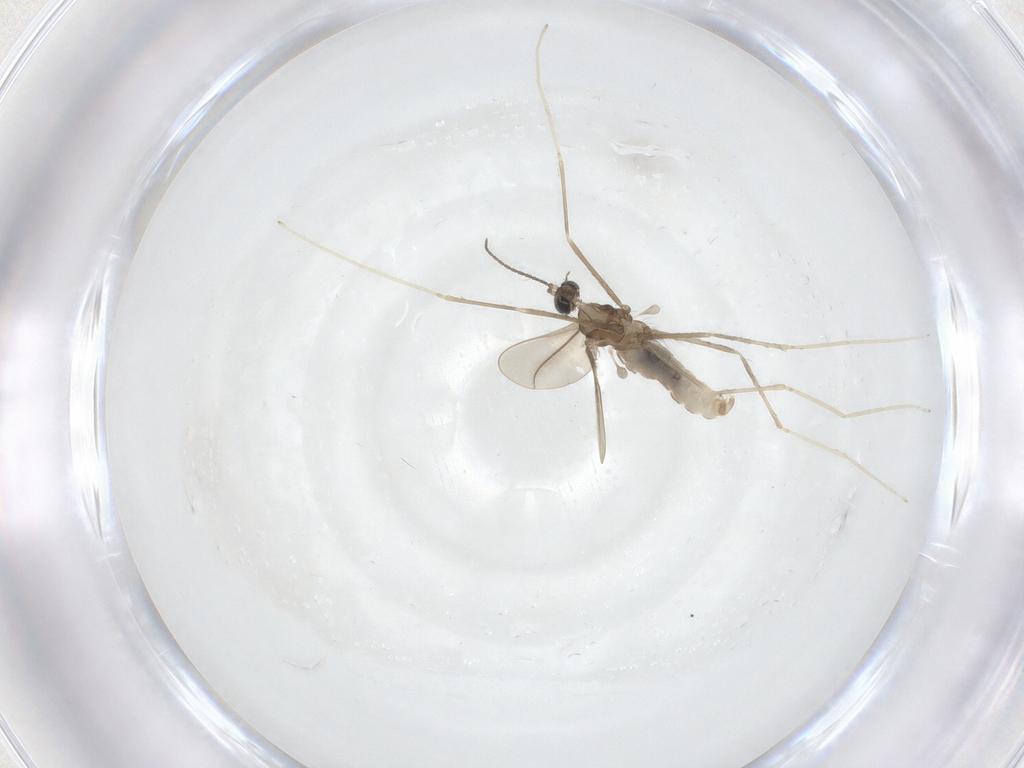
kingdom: Animalia
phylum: Arthropoda
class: Insecta
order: Diptera
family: Cecidomyiidae
